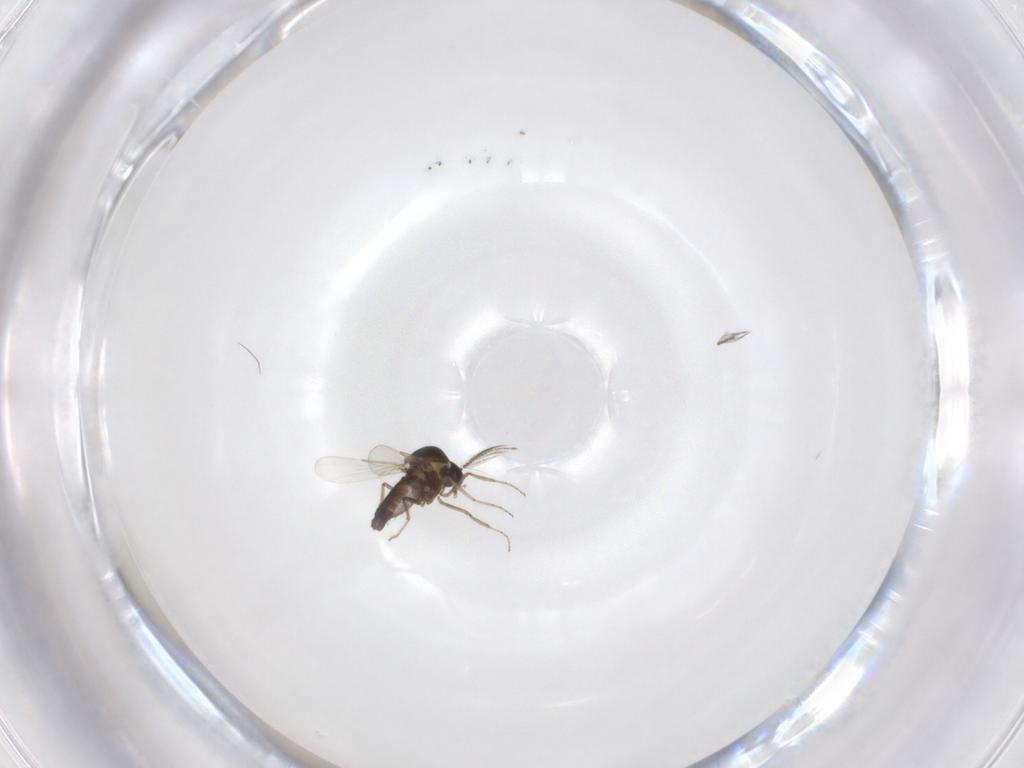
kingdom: Animalia
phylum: Arthropoda
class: Insecta
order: Diptera
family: Ceratopogonidae
